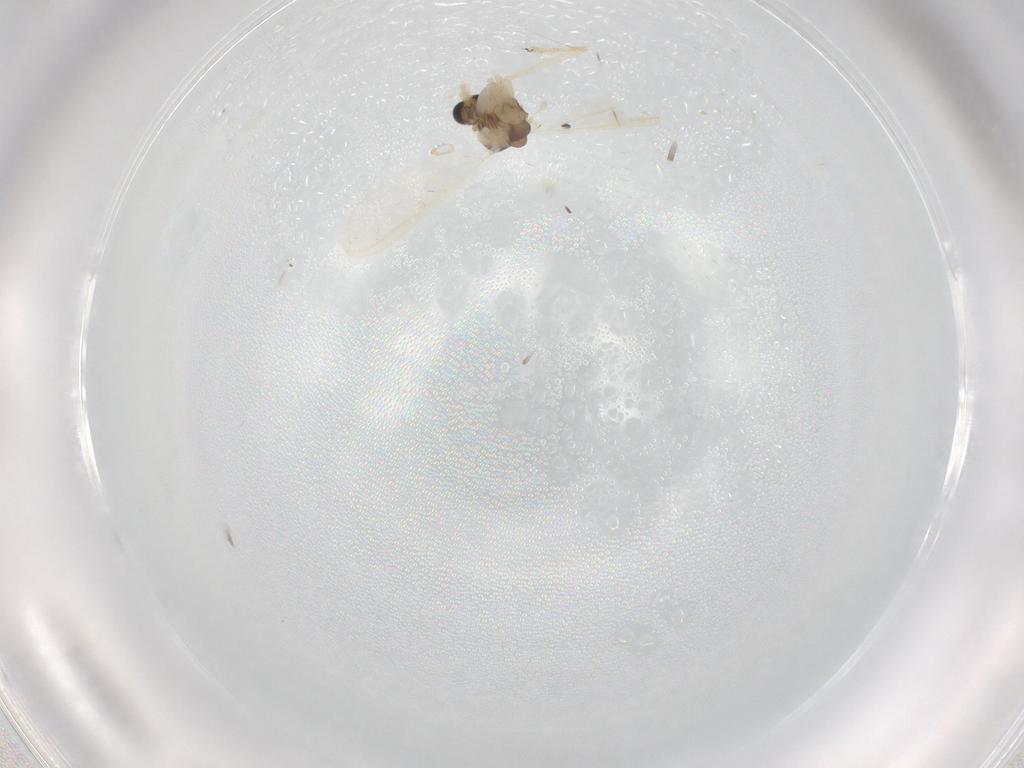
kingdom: Animalia
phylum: Arthropoda
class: Insecta
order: Diptera
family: Chironomidae
